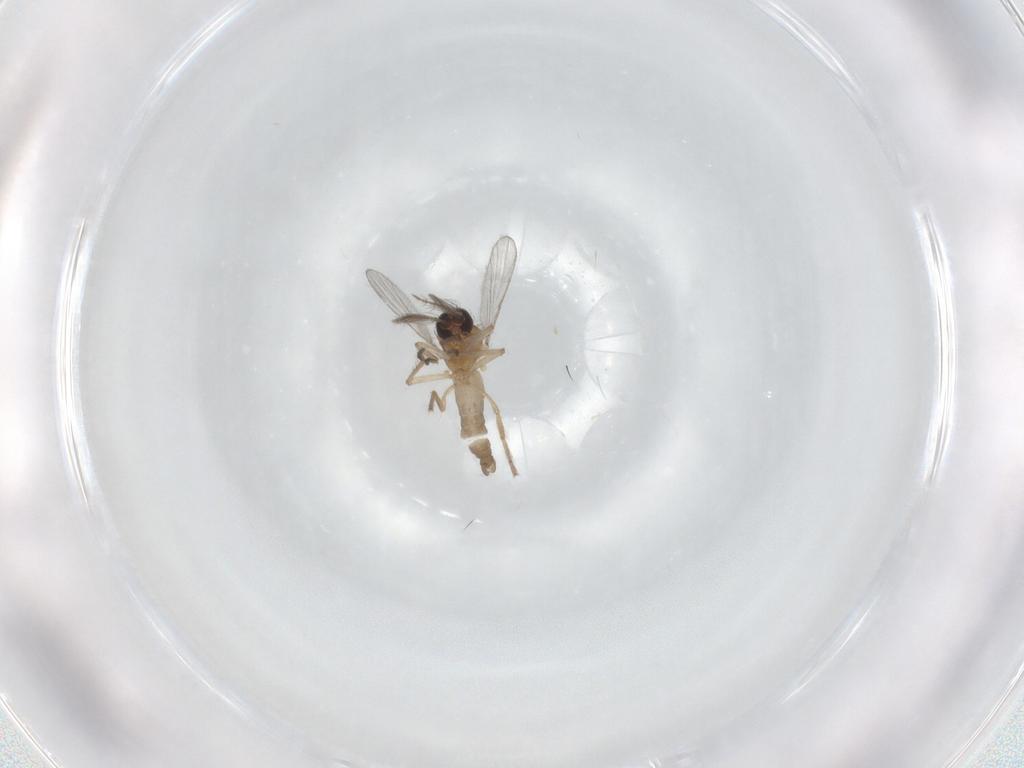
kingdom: Animalia
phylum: Arthropoda
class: Insecta
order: Diptera
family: Ceratopogonidae
